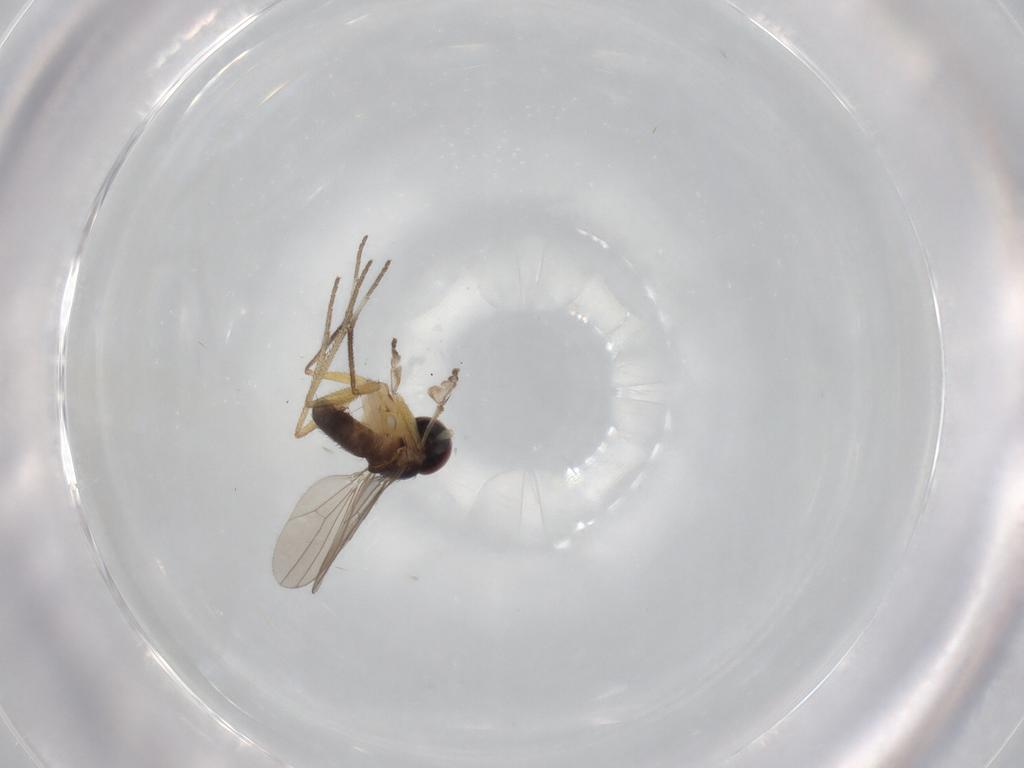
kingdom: Animalia
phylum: Arthropoda
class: Insecta
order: Diptera
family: Dolichopodidae
